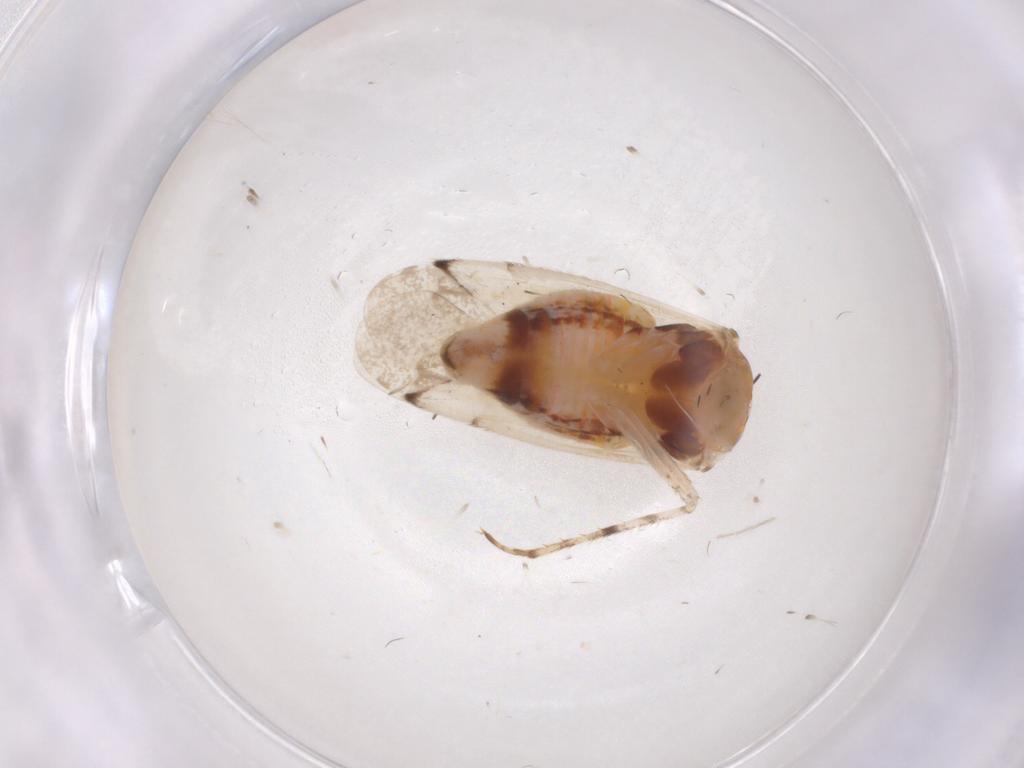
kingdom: Animalia
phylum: Arthropoda
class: Insecta
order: Hemiptera
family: Miridae
